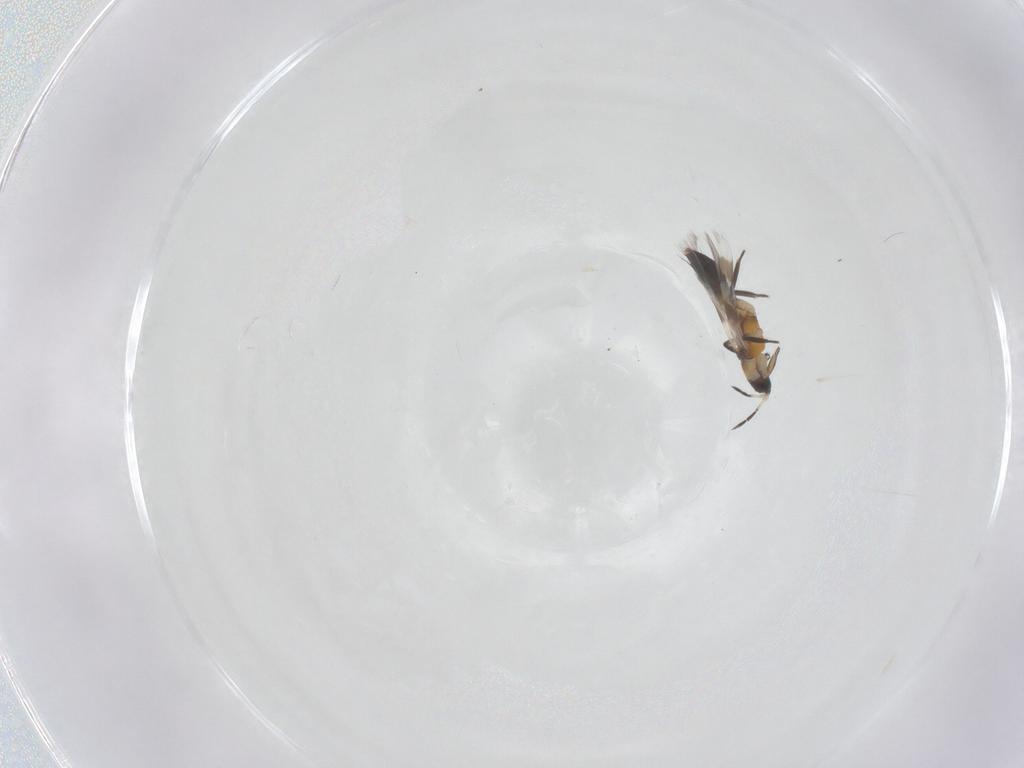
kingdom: Animalia
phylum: Arthropoda
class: Insecta
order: Thysanoptera
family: Aeolothripidae
